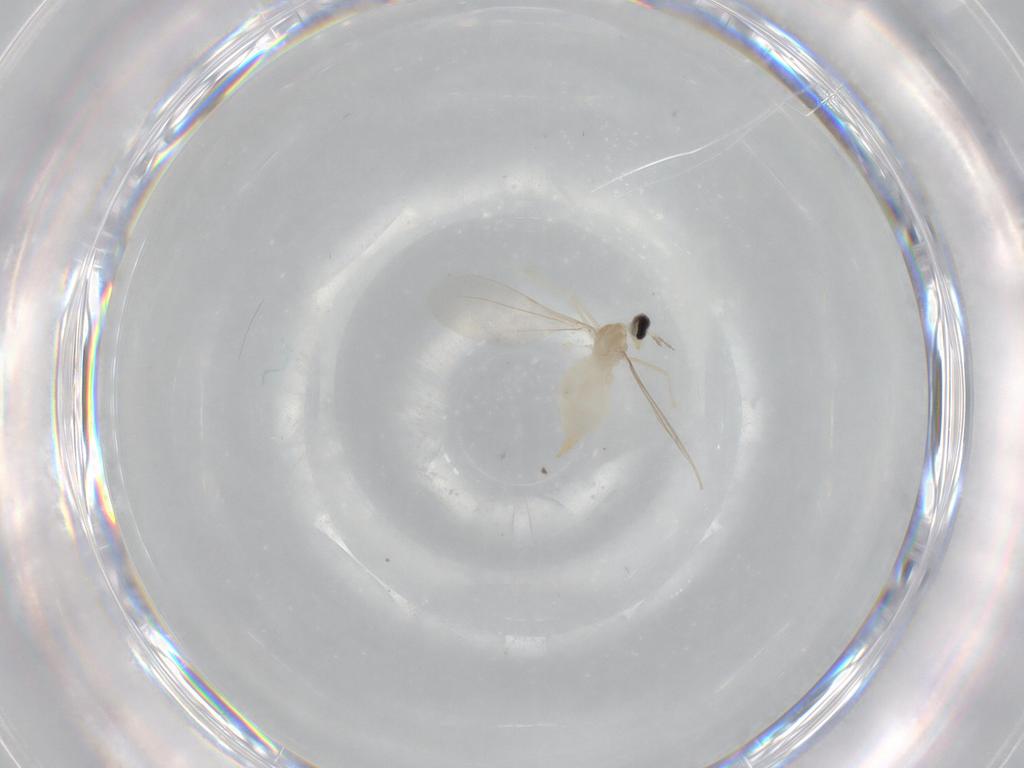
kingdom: Animalia
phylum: Arthropoda
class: Insecta
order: Diptera
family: Cecidomyiidae
